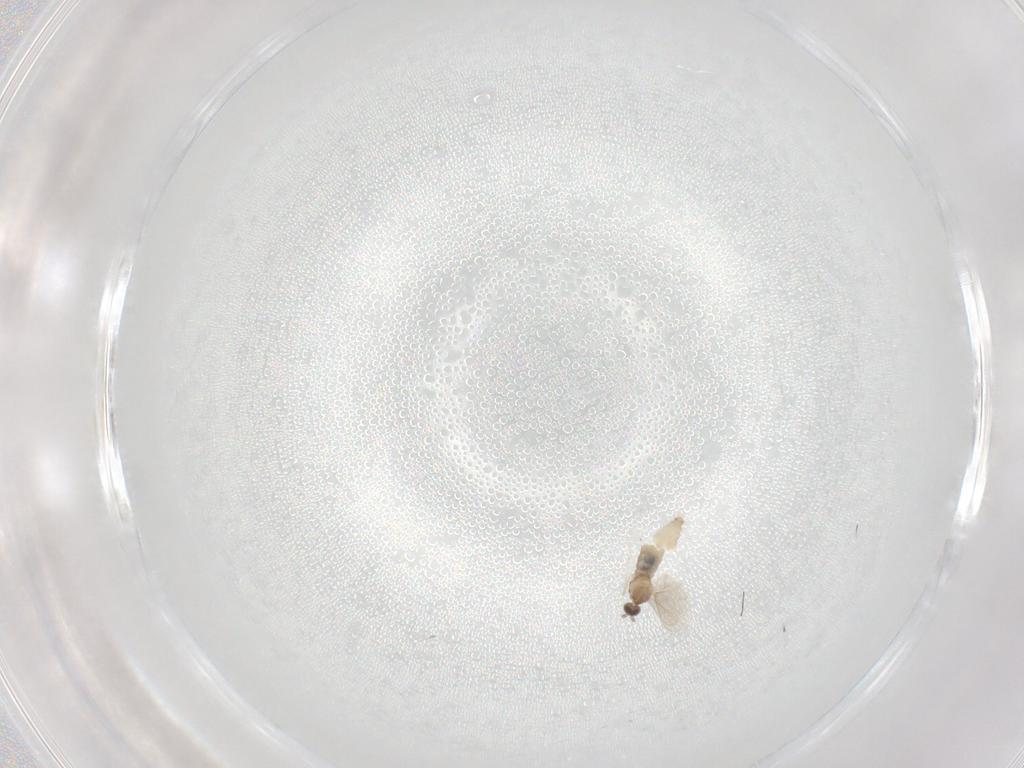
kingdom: Animalia
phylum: Arthropoda
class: Insecta
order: Diptera
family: Cecidomyiidae
